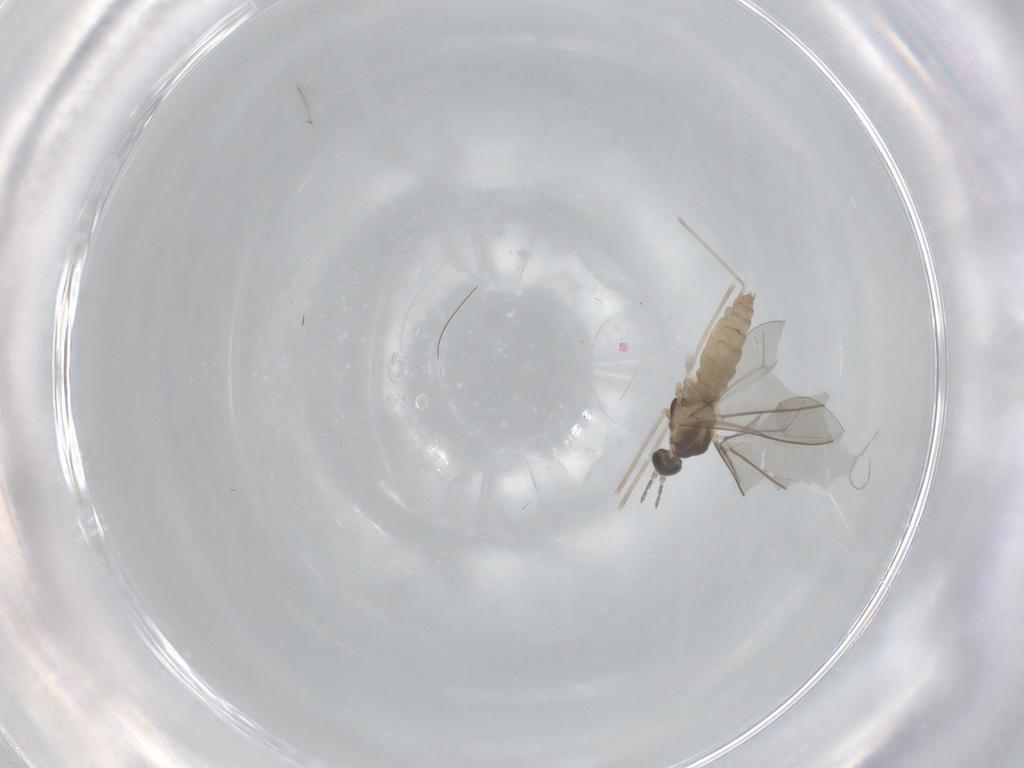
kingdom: Animalia
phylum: Arthropoda
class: Insecta
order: Diptera
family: Cecidomyiidae
